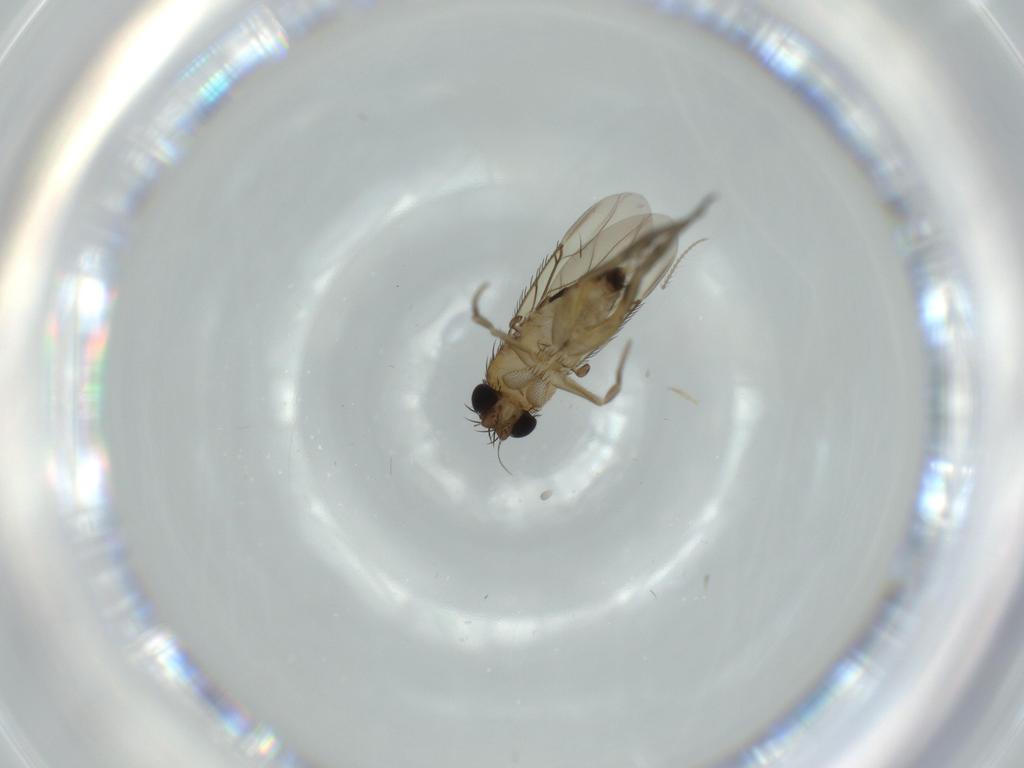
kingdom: Animalia
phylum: Arthropoda
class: Insecta
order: Diptera
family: Phoridae
